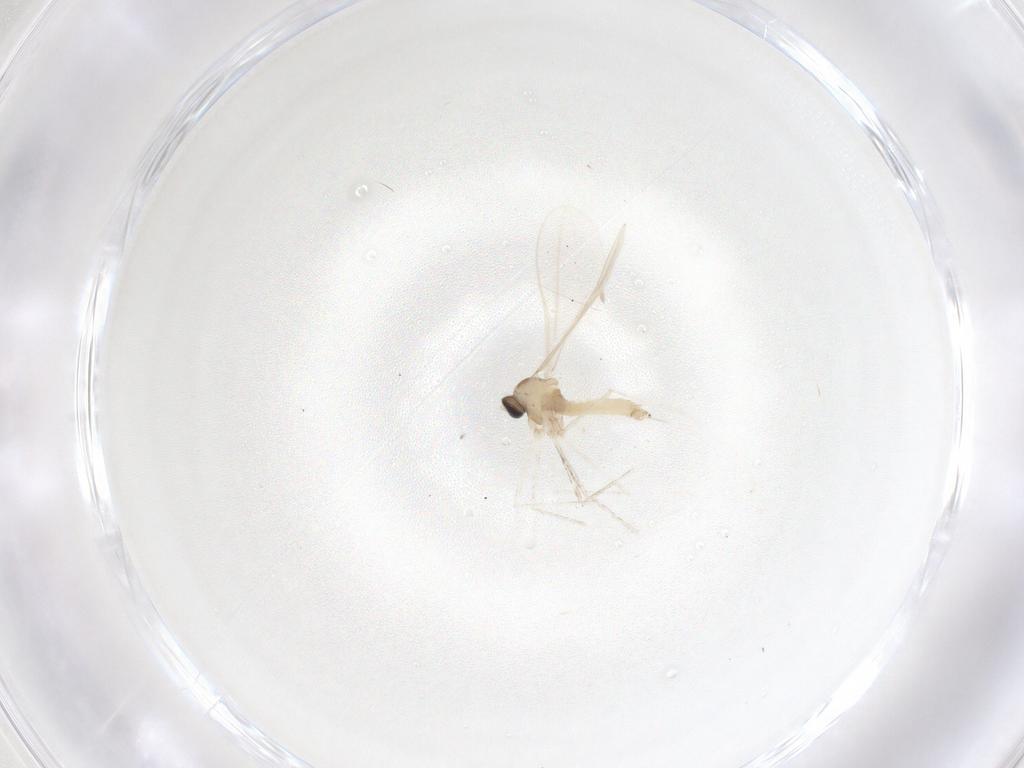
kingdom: Animalia
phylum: Arthropoda
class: Insecta
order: Diptera
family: Cecidomyiidae
